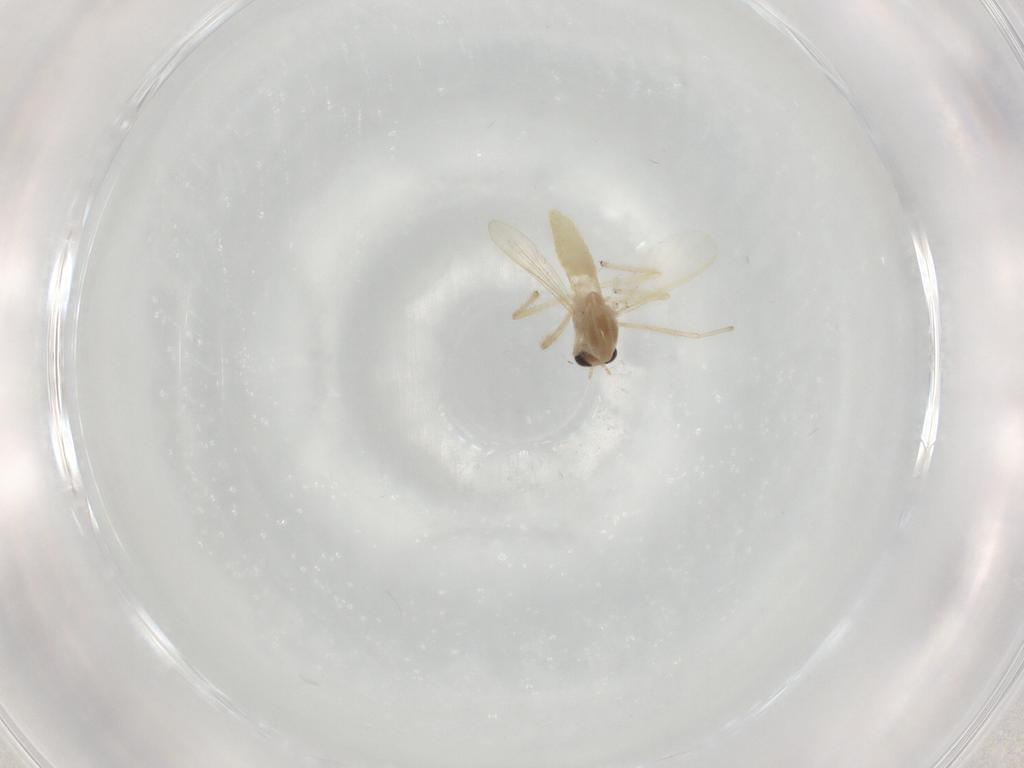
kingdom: Animalia
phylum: Arthropoda
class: Insecta
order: Diptera
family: Chironomidae
